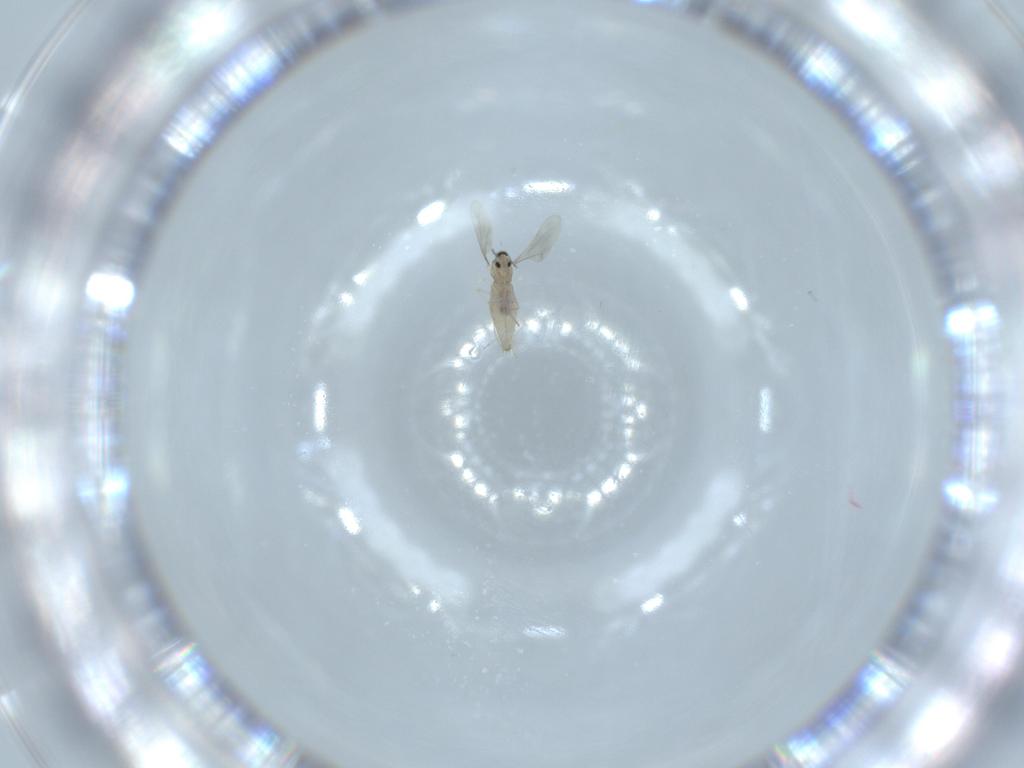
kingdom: Animalia
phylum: Arthropoda
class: Insecta
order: Diptera
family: Cecidomyiidae
